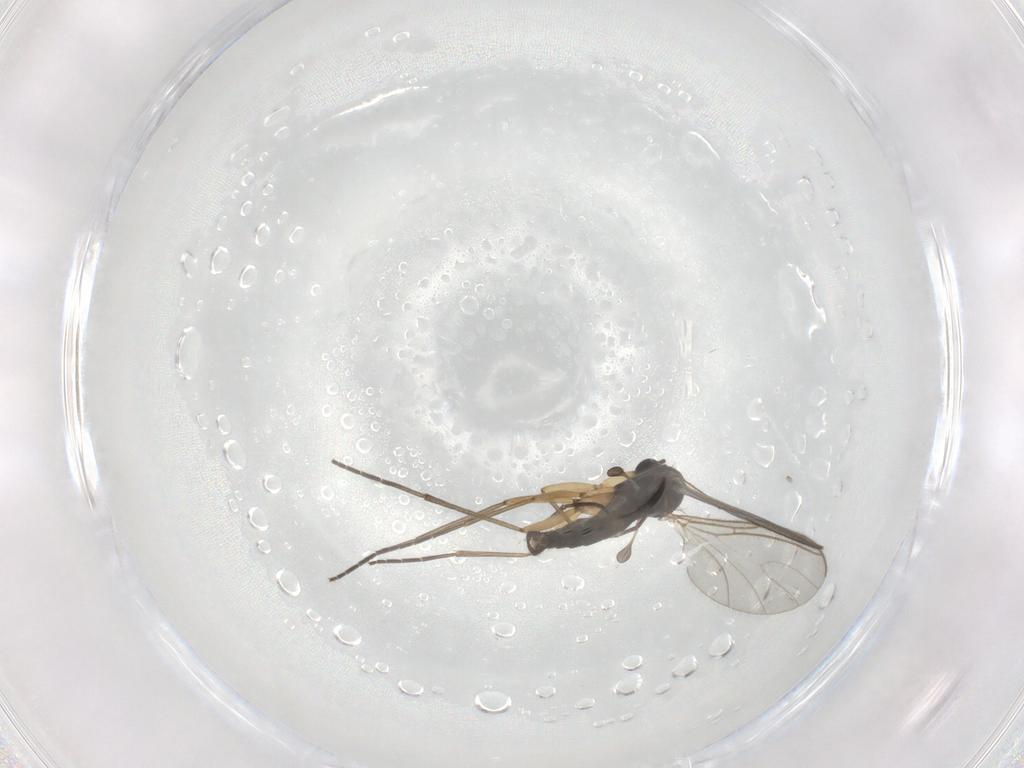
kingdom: Animalia
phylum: Arthropoda
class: Insecta
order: Diptera
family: Sciaridae
